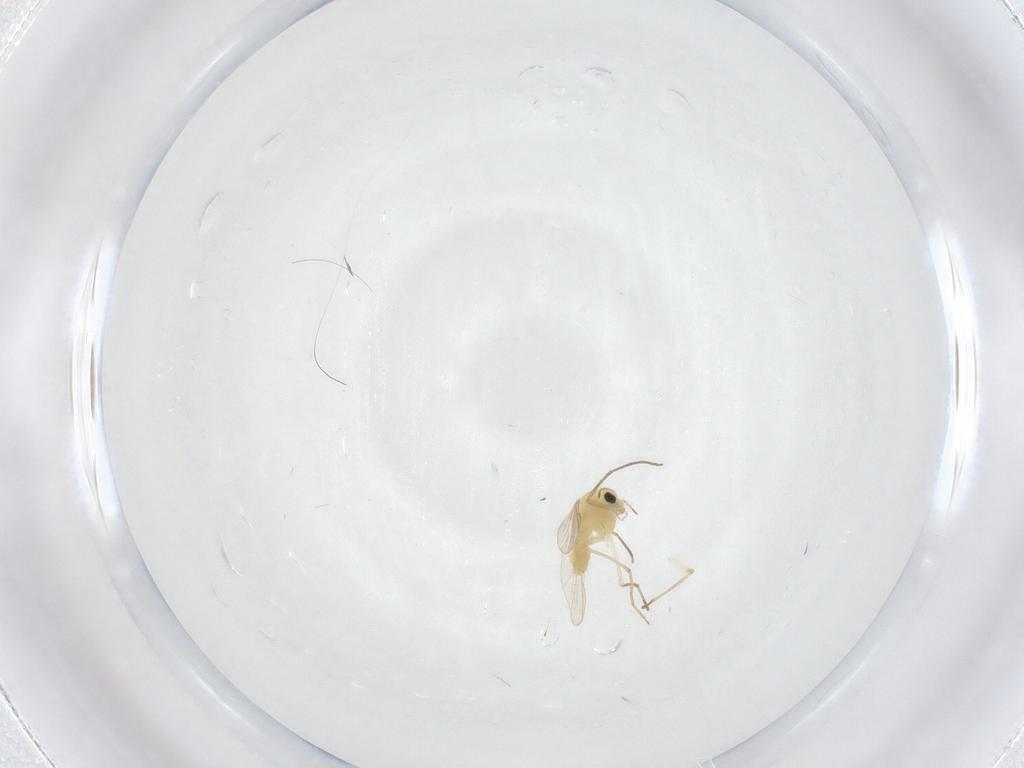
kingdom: Animalia
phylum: Arthropoda
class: Insecta
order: Diptera
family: Chironomidae
